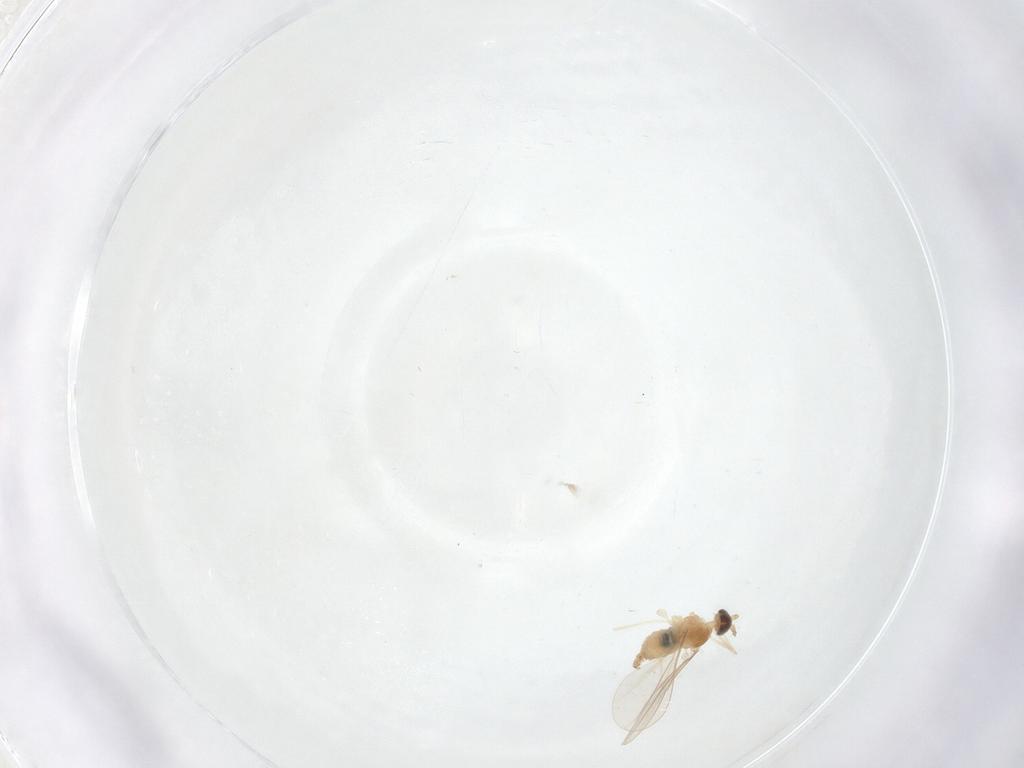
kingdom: Animalia
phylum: Arthropoda
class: Insecta
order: Diptera
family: Cecidomyiidae
